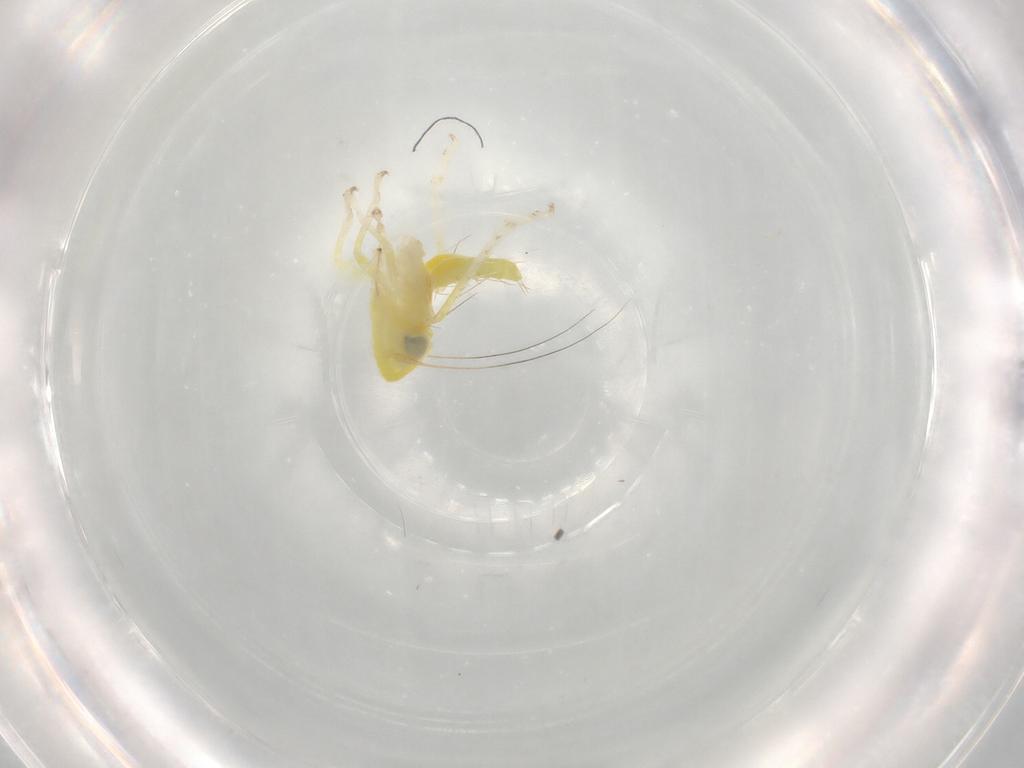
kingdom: Animalia
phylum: Arthropoda
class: Insecta
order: Hemiptera
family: Cicadellidae
